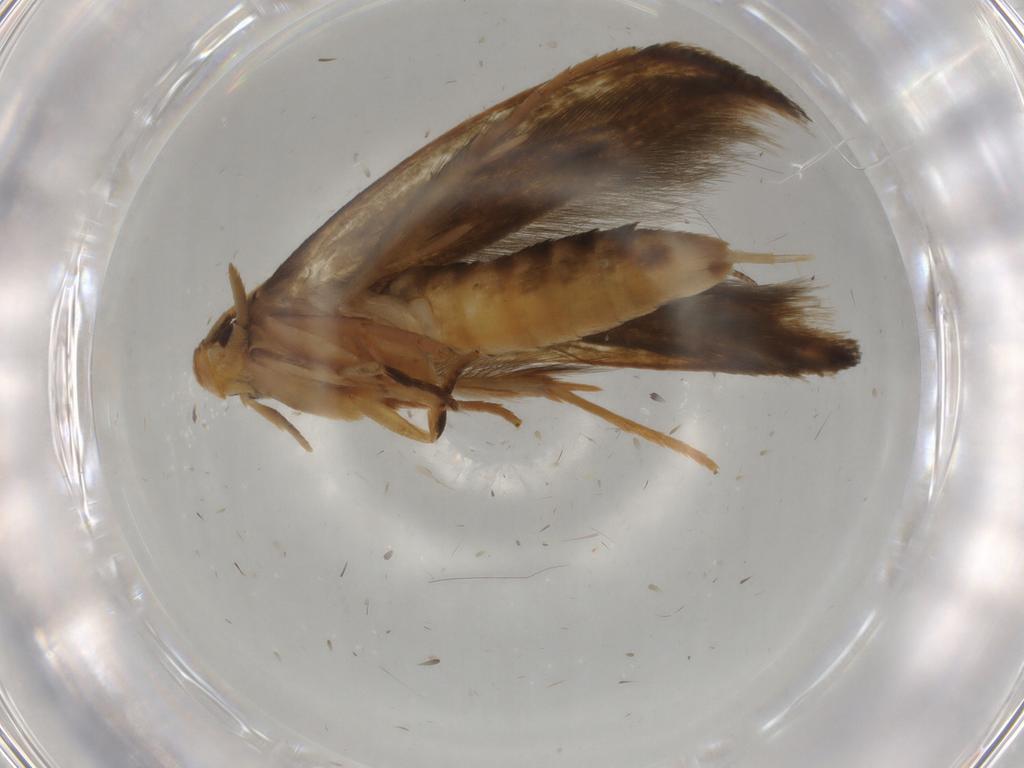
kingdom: Animalia
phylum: Arthropoda
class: Insecta
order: Lepidoptera
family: Tineidae
